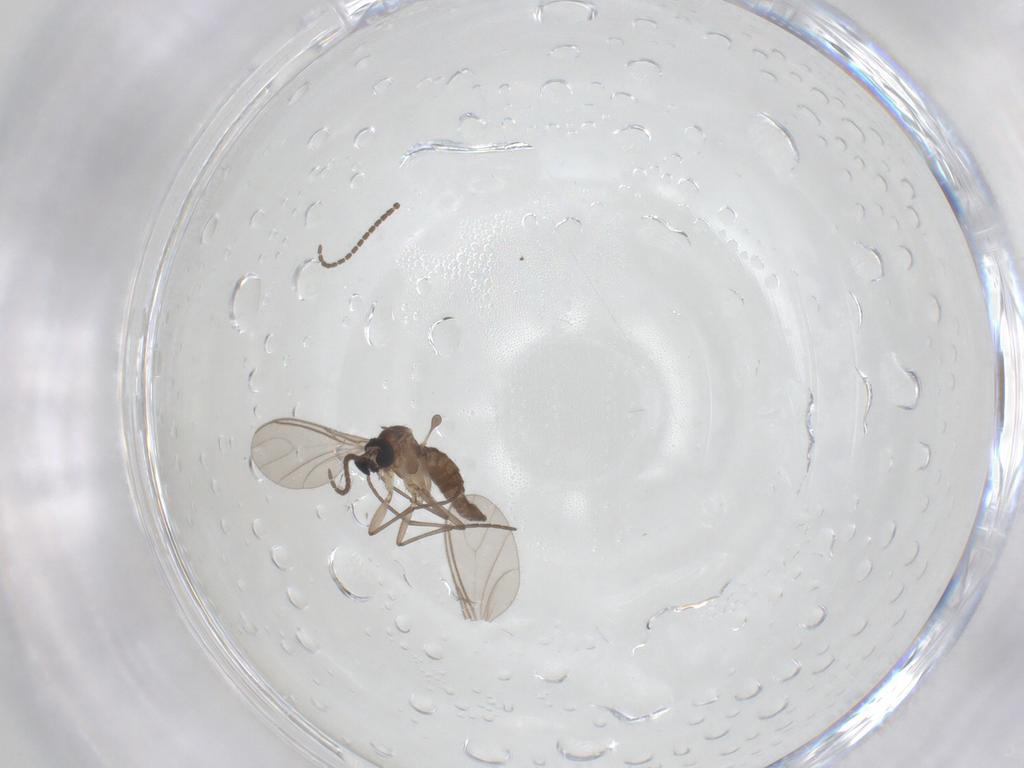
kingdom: Animalia
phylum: Arthropoda
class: Insecta
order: Diptera
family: Sciaridae
